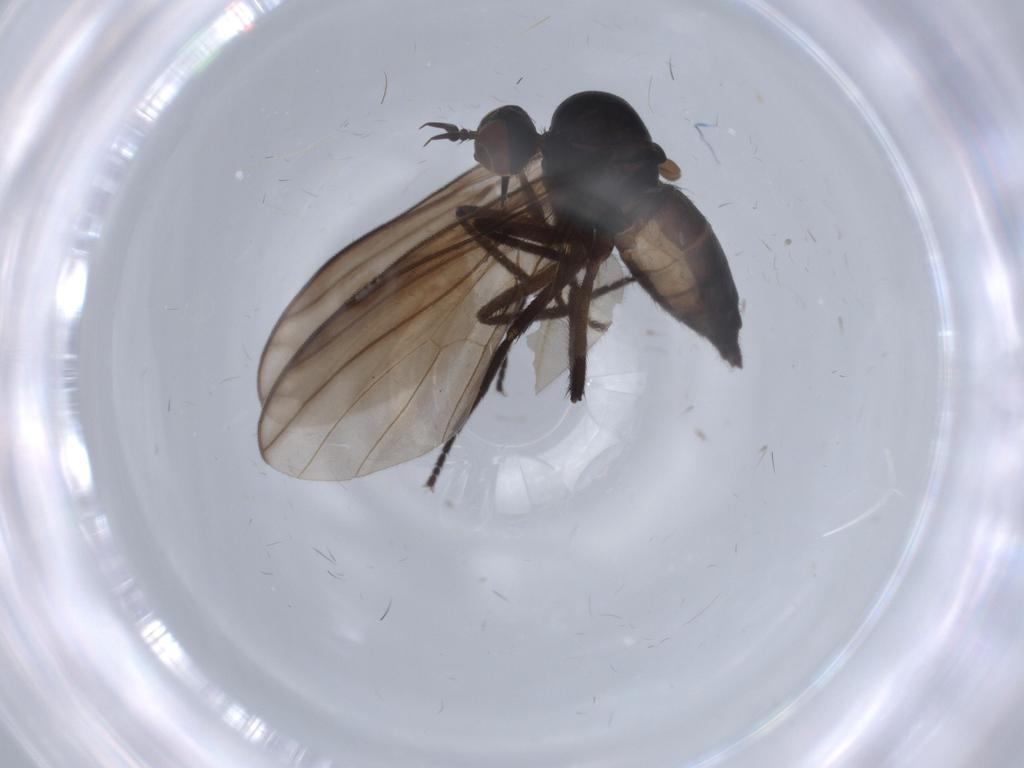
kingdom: Animalia
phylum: Arthropoda
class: Insecta
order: Diptera
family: Empididae
